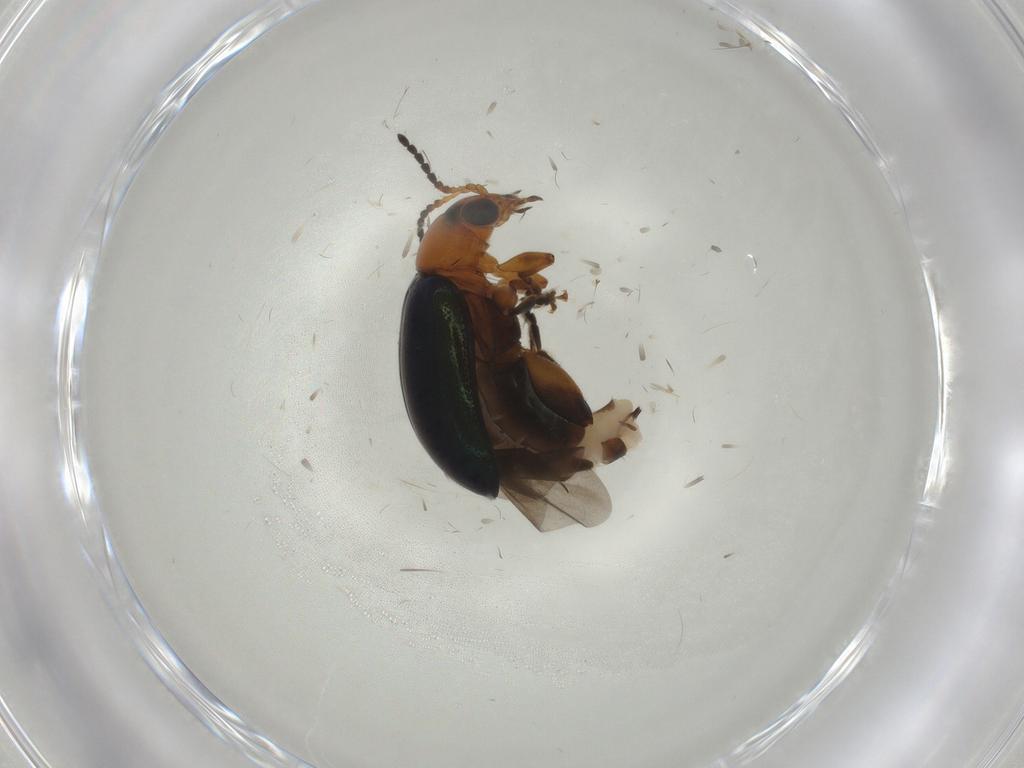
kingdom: Animalia
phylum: Arthropoda
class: Insecta
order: Coleoptera
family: Chrysomelidae
